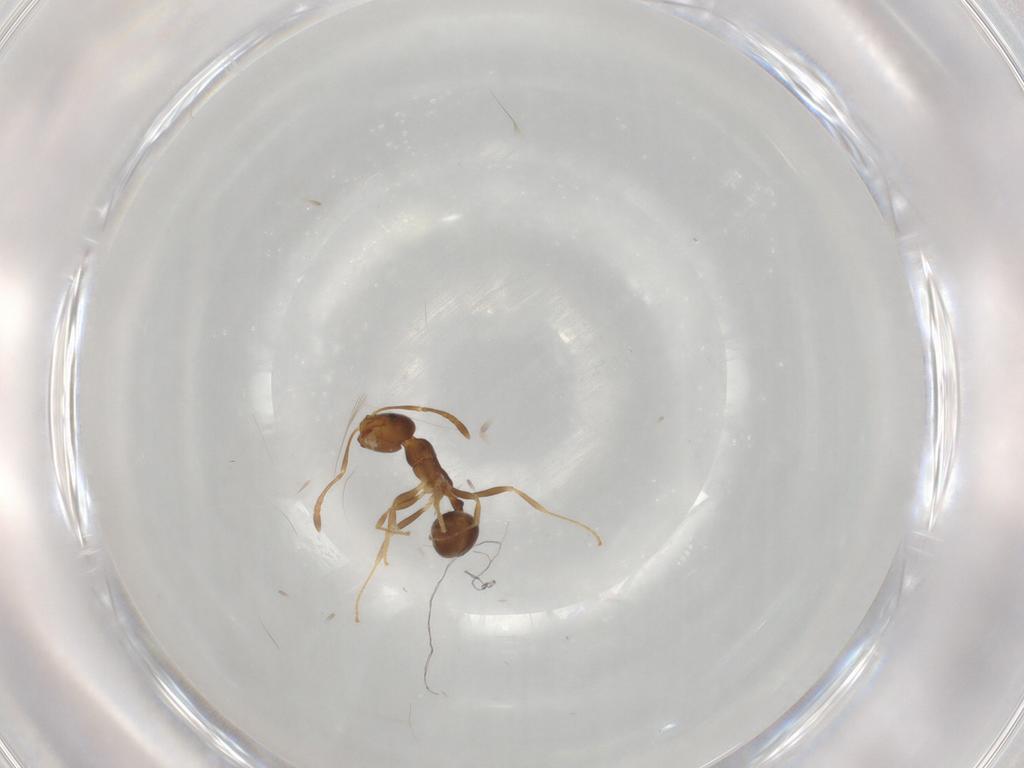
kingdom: Animalia
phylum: Arthropoda
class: Insecta
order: Hymenoptera
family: Formicidae
